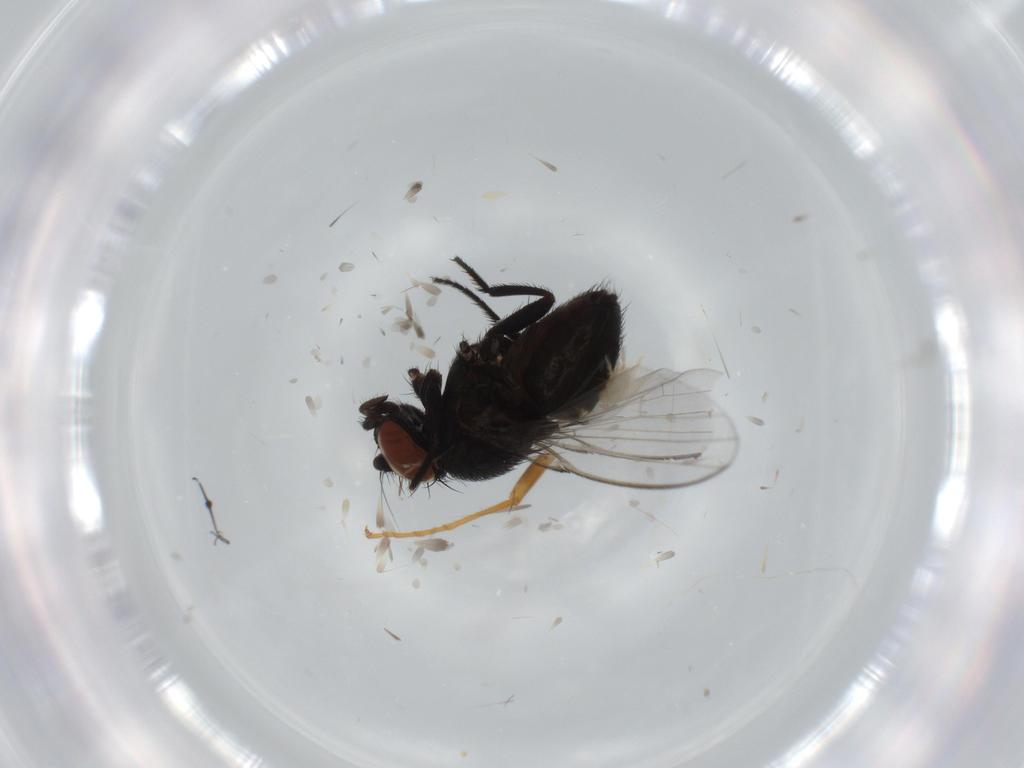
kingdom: Animalia
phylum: Arthropoda
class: Insecta
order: Diptera
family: Milichiidae
